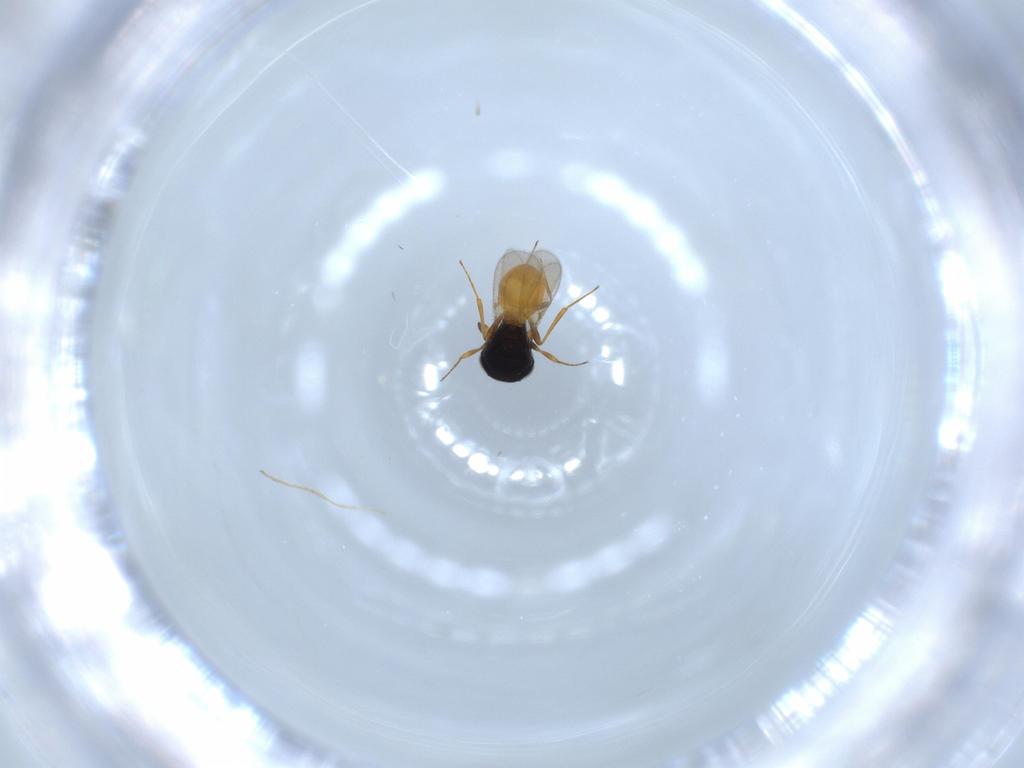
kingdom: Animalia
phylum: Arthropoda
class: Insecta
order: Hymenoptera
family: Scelionidae
